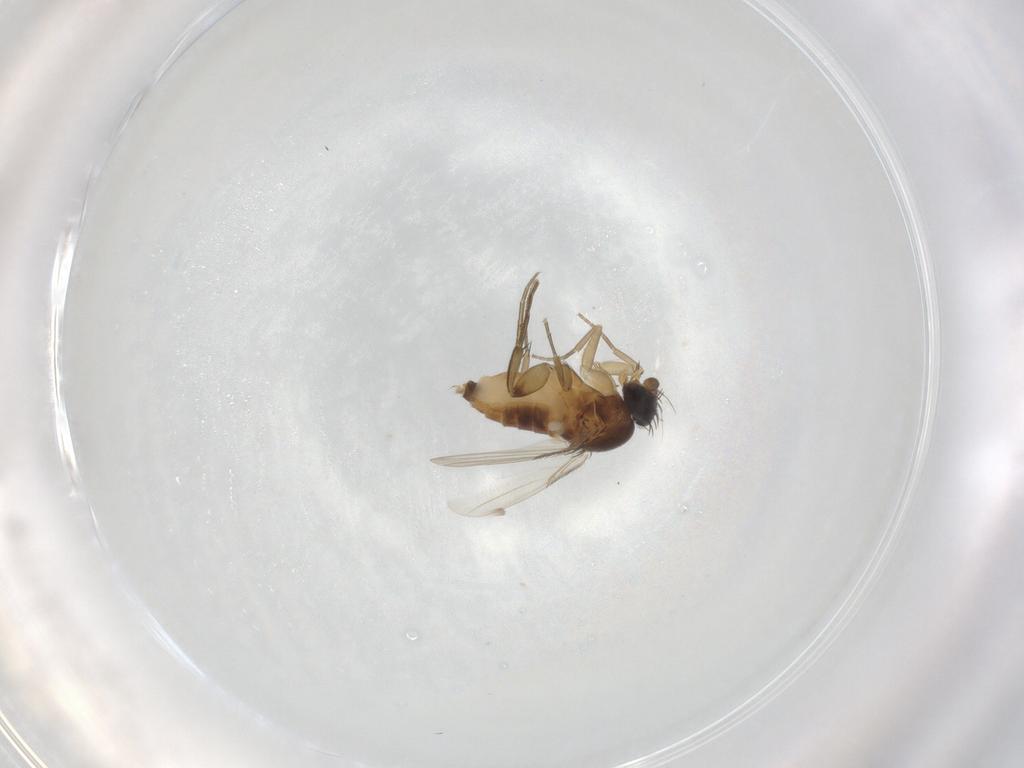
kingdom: Animalia
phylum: Arthropoda
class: Insecta
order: Diptera
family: Phoridae
